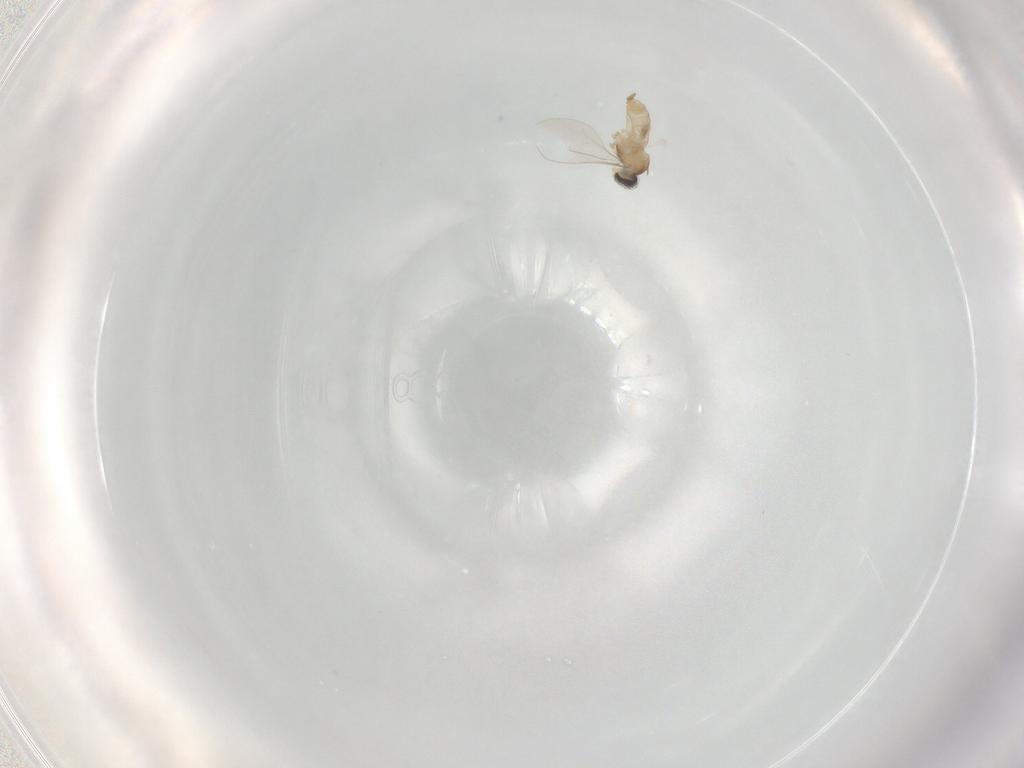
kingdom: Animalia
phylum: Arthropoda
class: Insecta
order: Diptera
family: Cecidomyiidae
